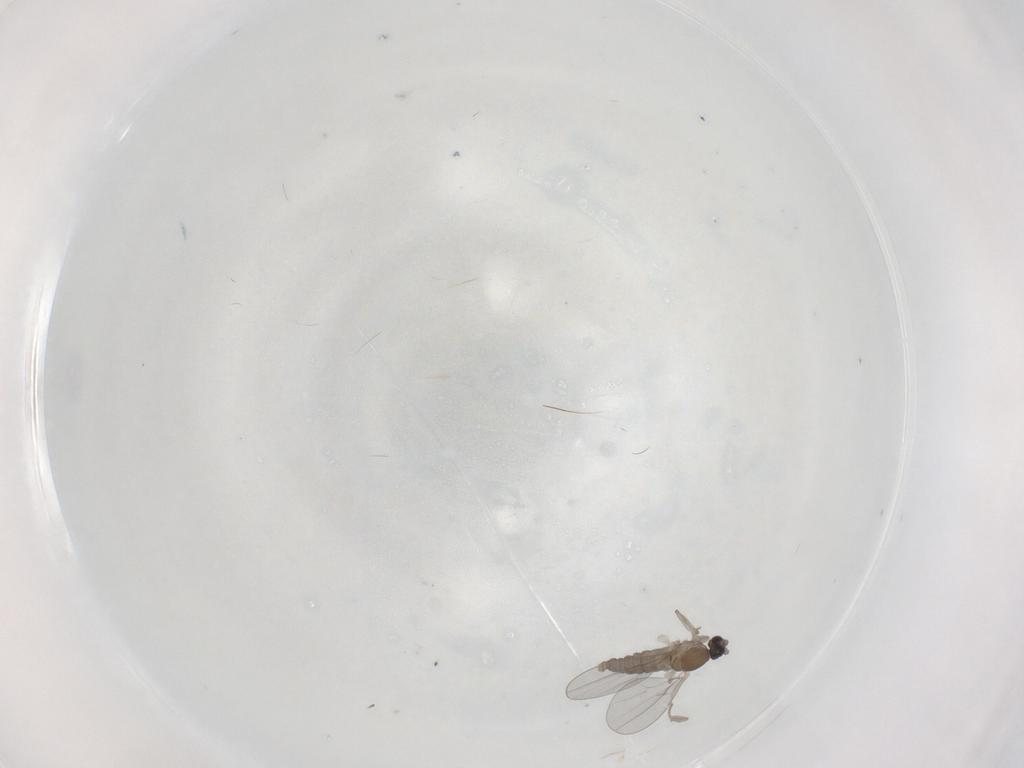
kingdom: Animalia
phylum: Arthropoda
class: Insecta
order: Diptera
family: Cecidomyiidae
